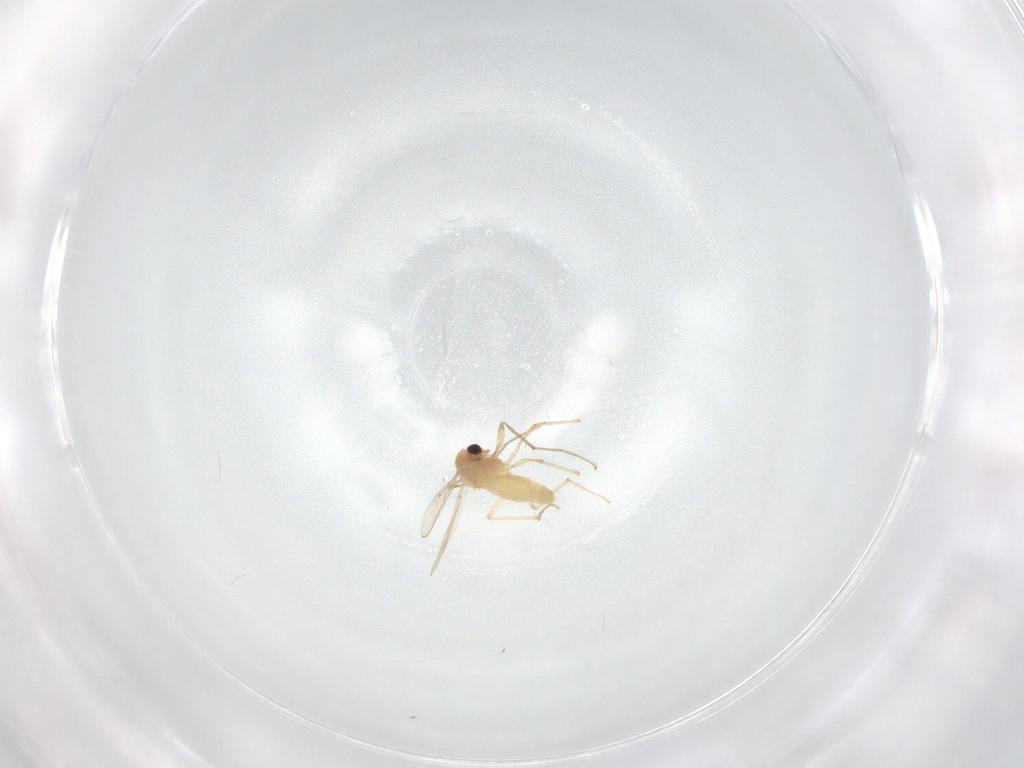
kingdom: Animalia
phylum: Arthropoda
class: Insecta
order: Diptera
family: Chironomidae
